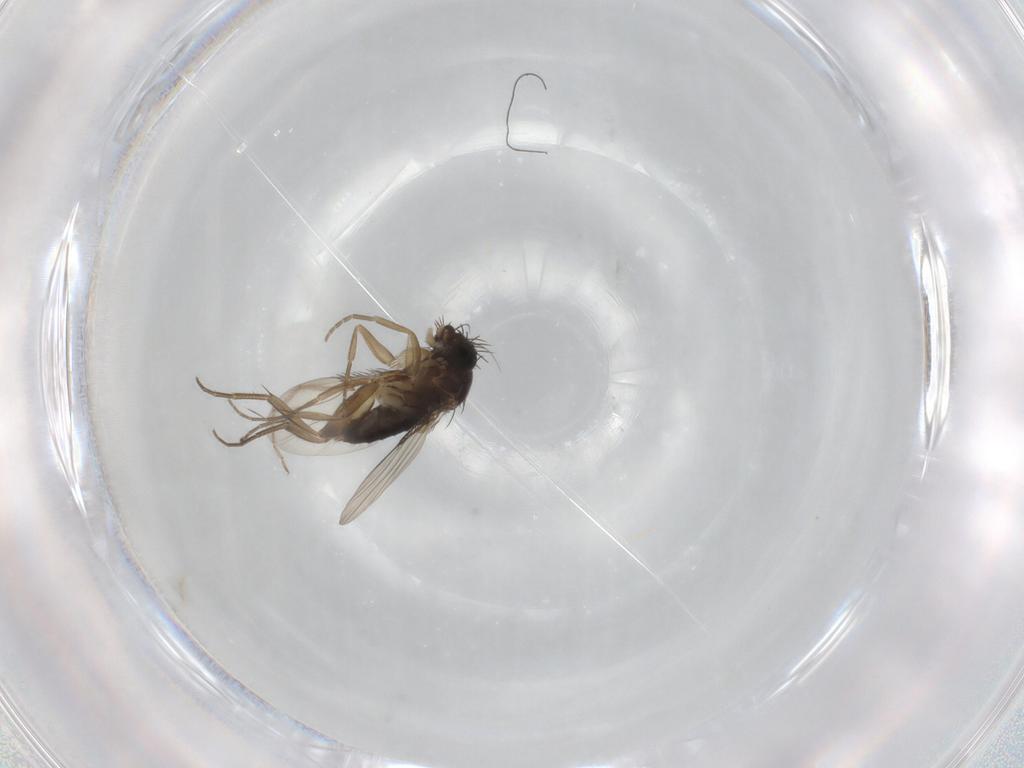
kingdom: Animalia
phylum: Arthropoda
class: Insecta
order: Diptera
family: Phoridae
